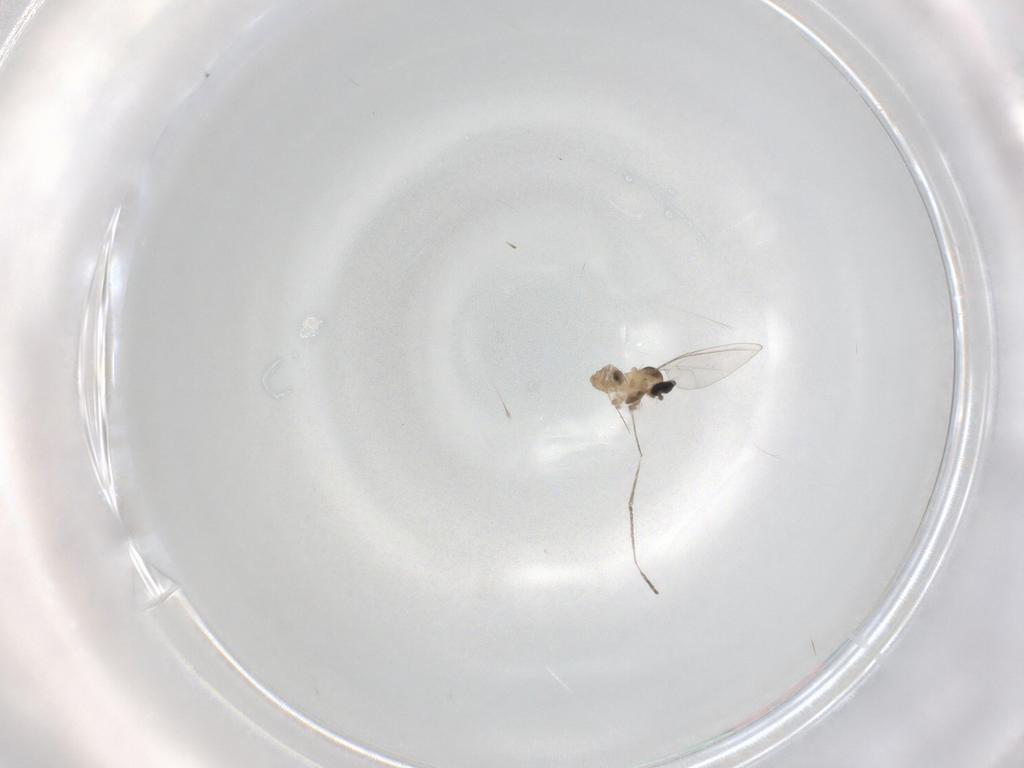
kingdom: Animalia
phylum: Arthropoda
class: Insecta
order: Diptera
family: Cecidomyiidae
